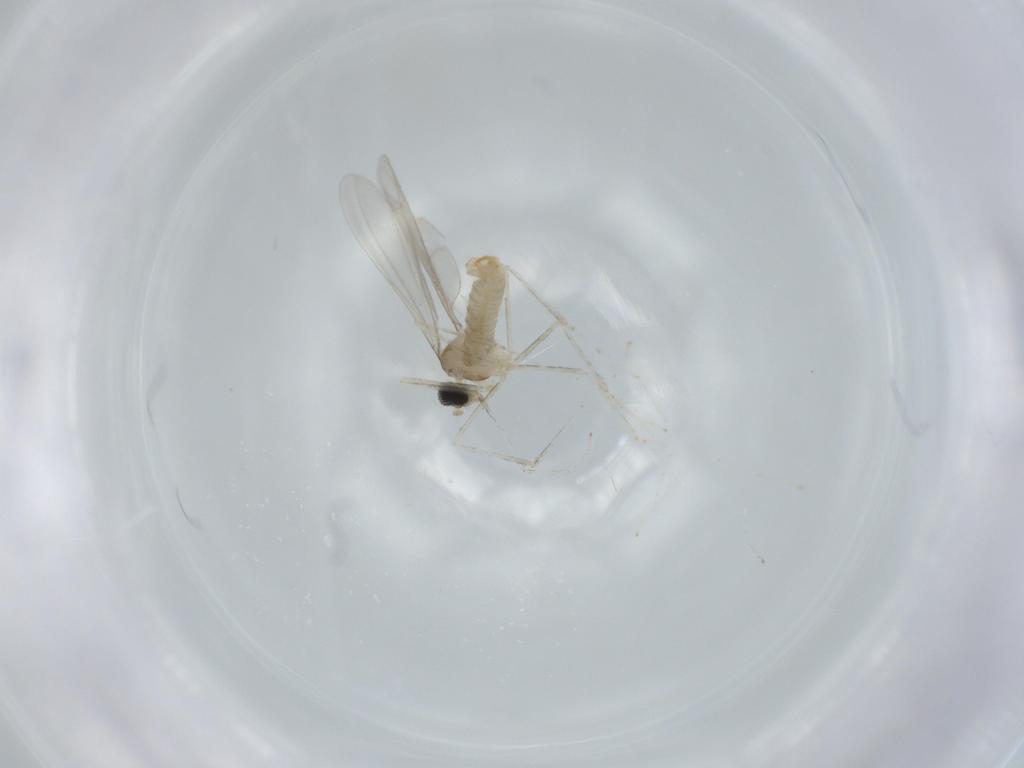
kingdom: Animalia
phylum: Arthropoda
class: Insecta
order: Diptera
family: Cecidomyiidae
